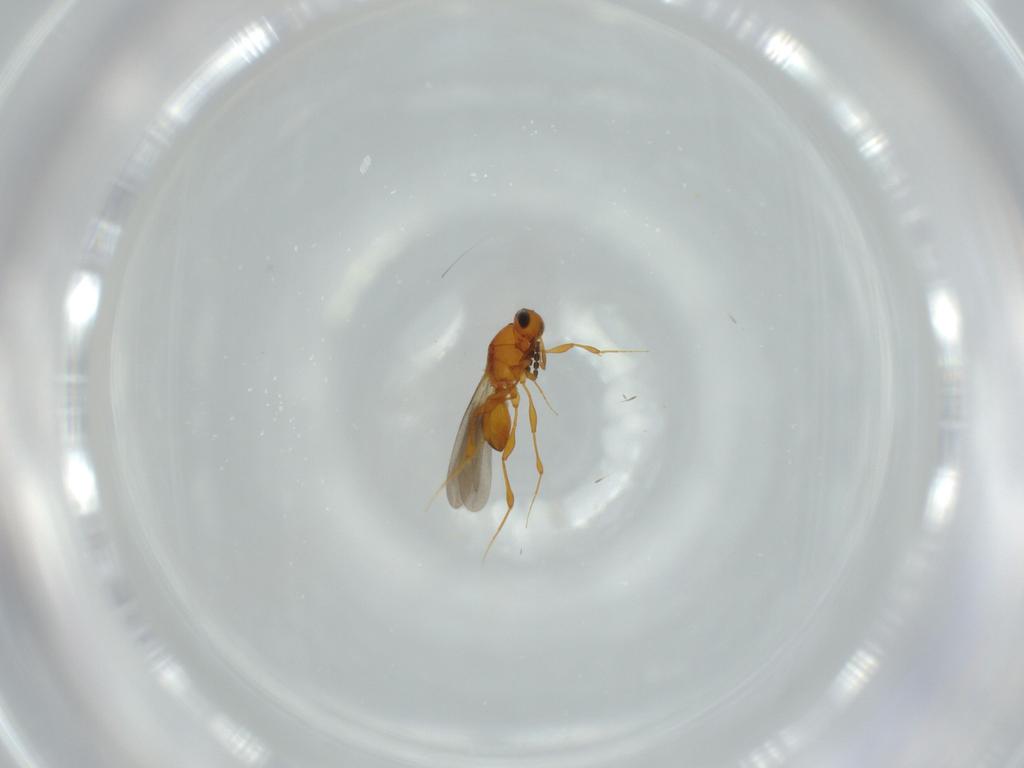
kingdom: Animalia
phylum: Arthropoda
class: Insecta
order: Hymenoptera
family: Platygastridae
